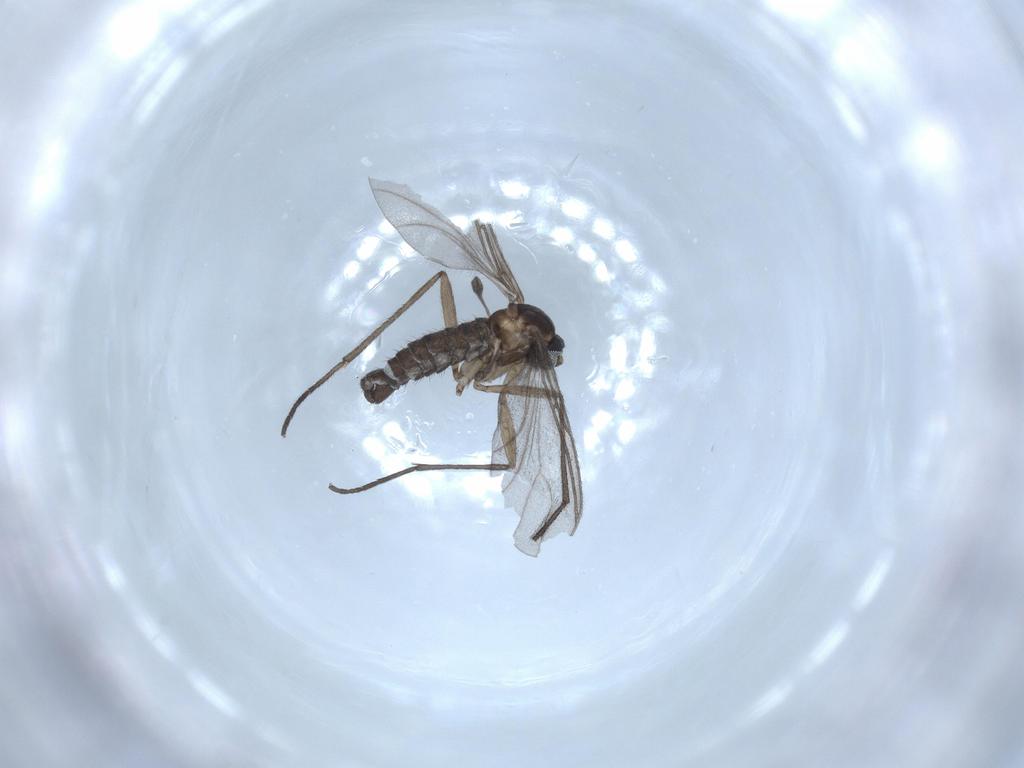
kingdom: Animalia
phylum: Arthropoda
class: Insecta
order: Diptera
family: Sciaridae
